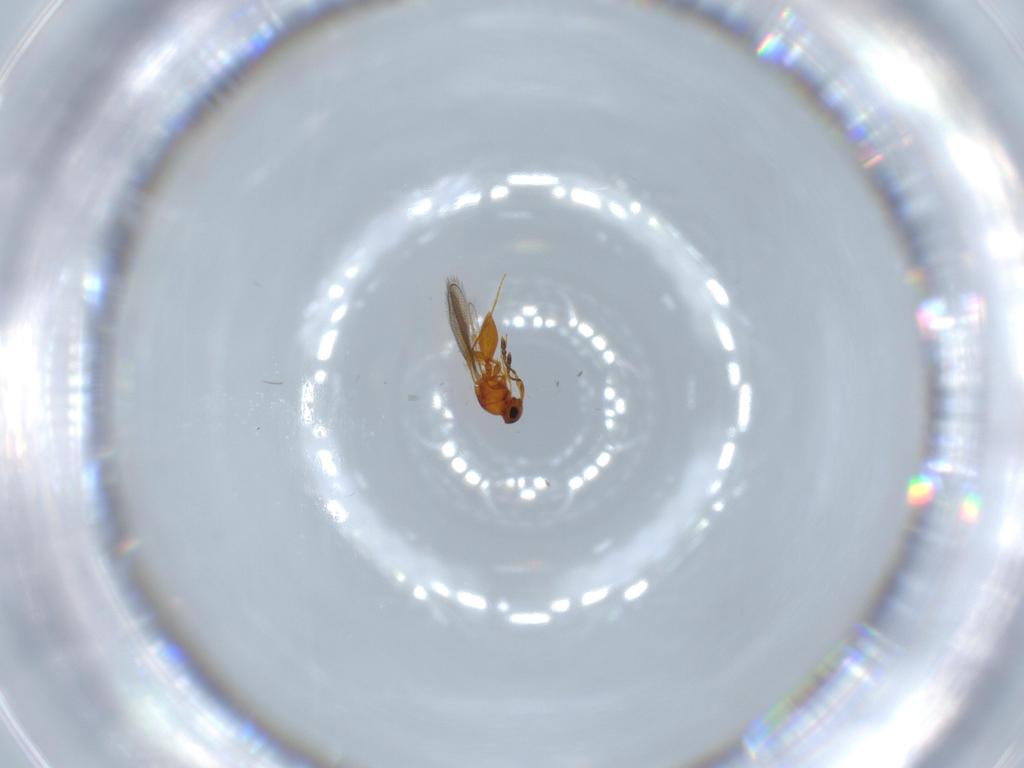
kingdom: Animalia
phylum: Arthropoda
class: Insecta
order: Hymenoptera
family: Platygastridae
